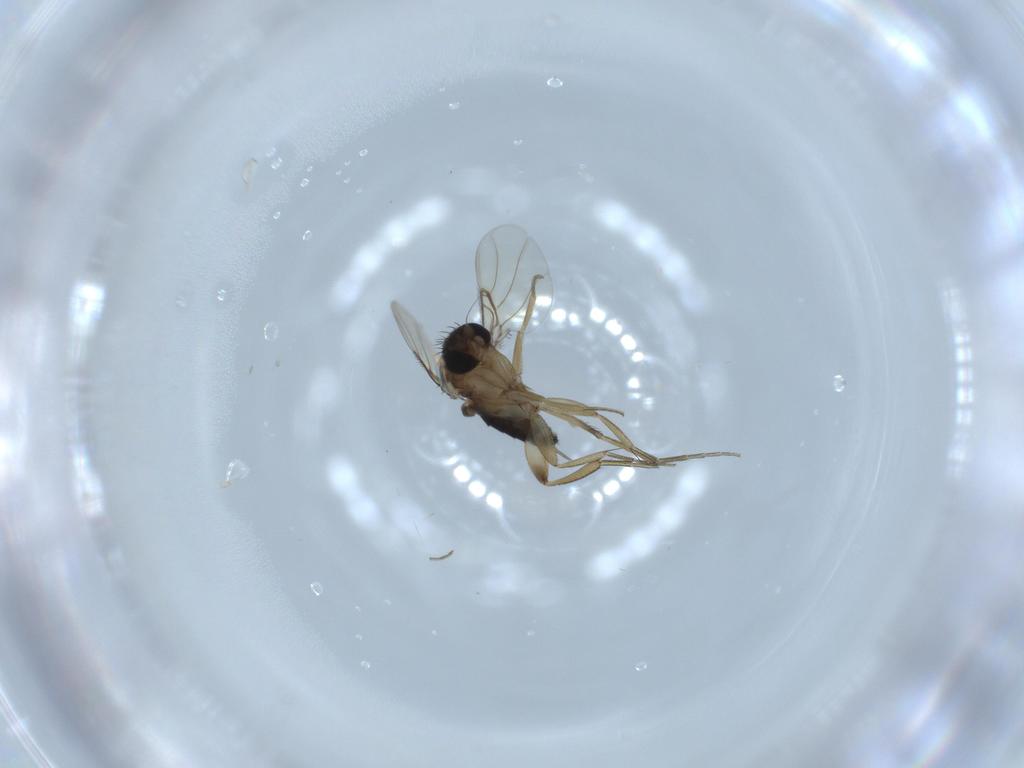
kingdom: Animalia
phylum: Arthropoda
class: Insecta
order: Diptera
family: Phoridae
